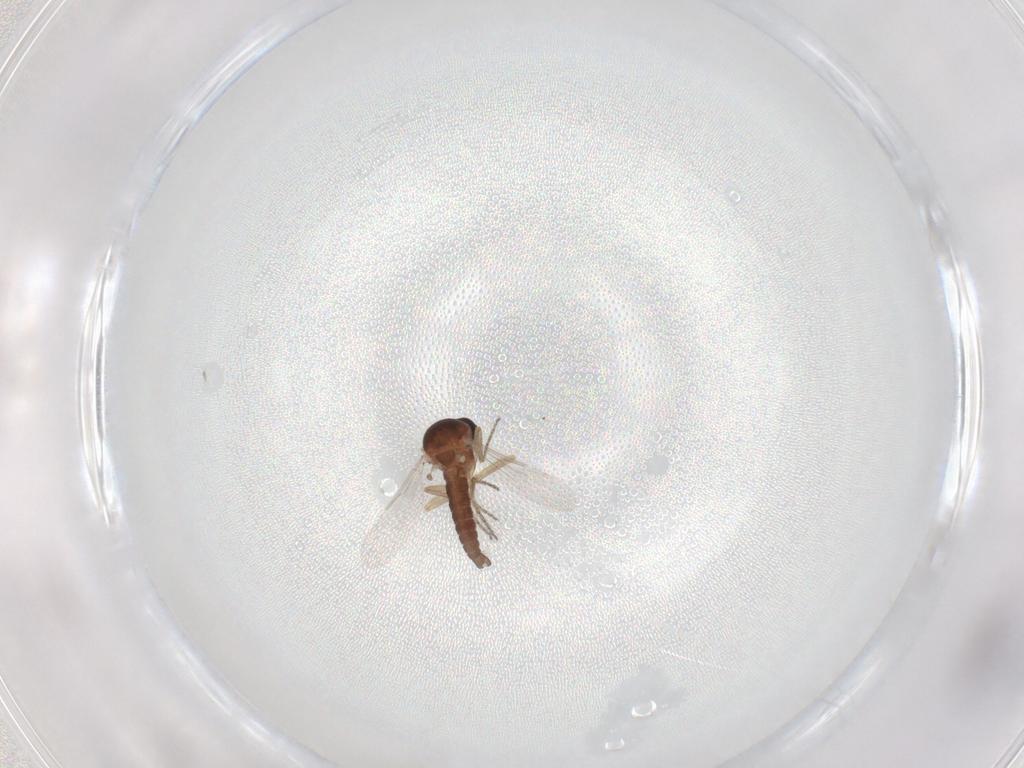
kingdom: Animalia
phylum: Arthropoda
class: Insecta
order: Diptera
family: Ceratopogonidae
